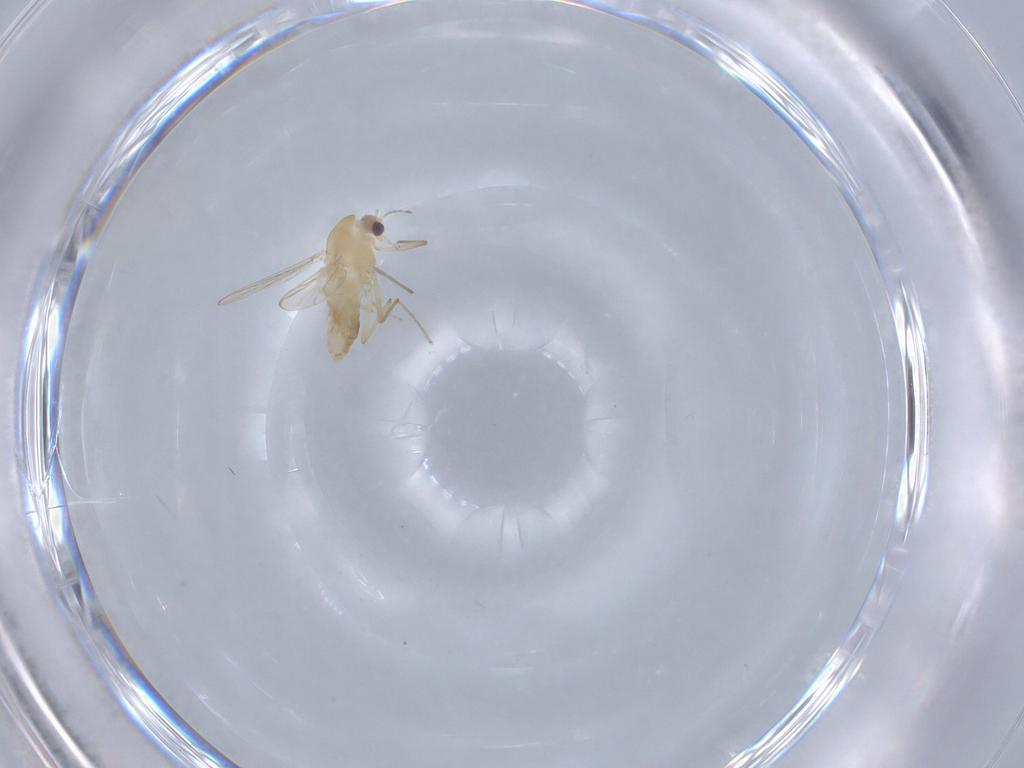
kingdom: Animalia
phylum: Arthropoda
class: Insecta
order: Diptera
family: Chironomidae
